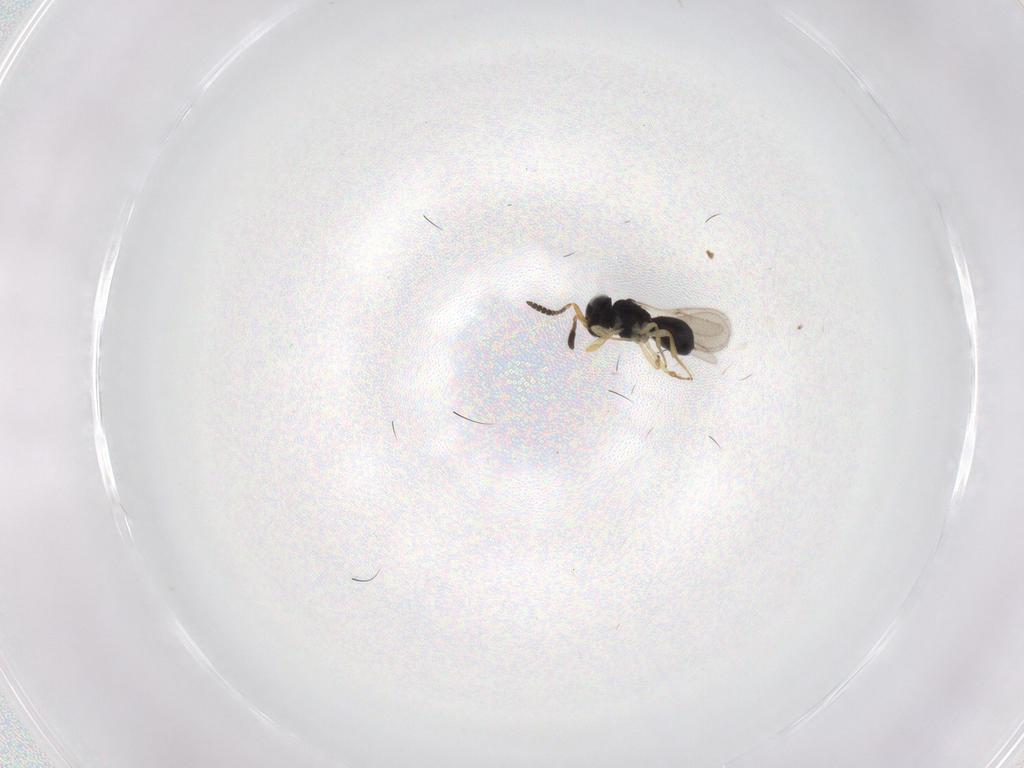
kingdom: Animalia
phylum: Arthropoda
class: Insecta
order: Hymenoptera
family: Scelionidae
